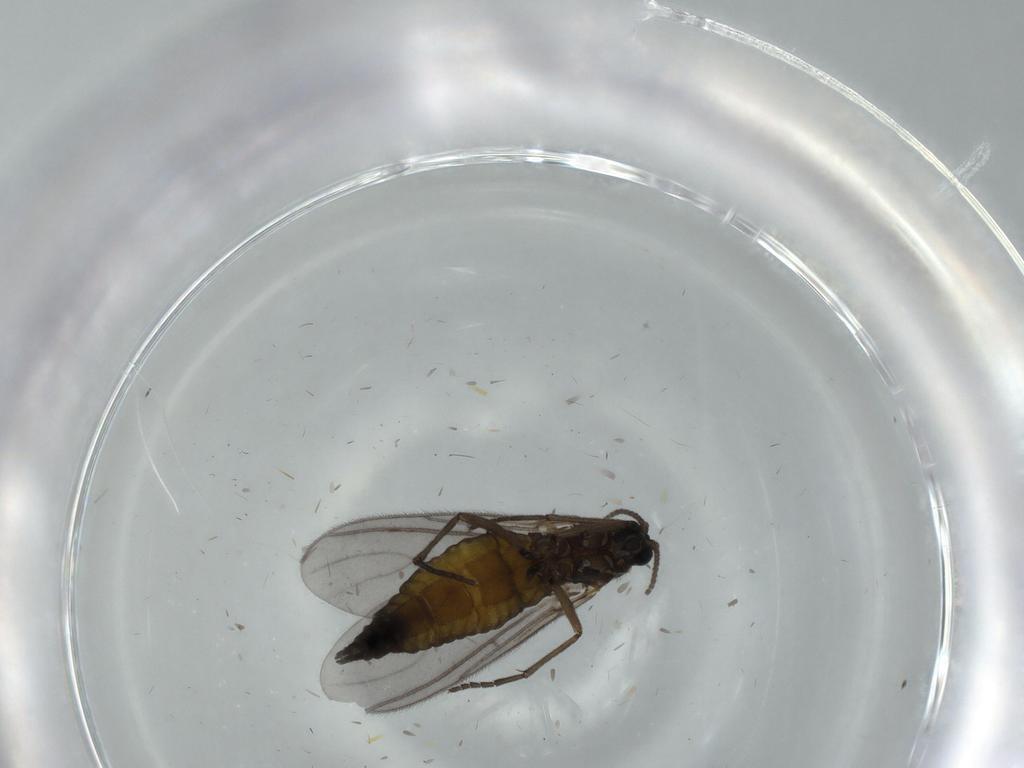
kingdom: Animalia
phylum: Arthropoda
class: Insecta
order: Diptera
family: Sciaridae
